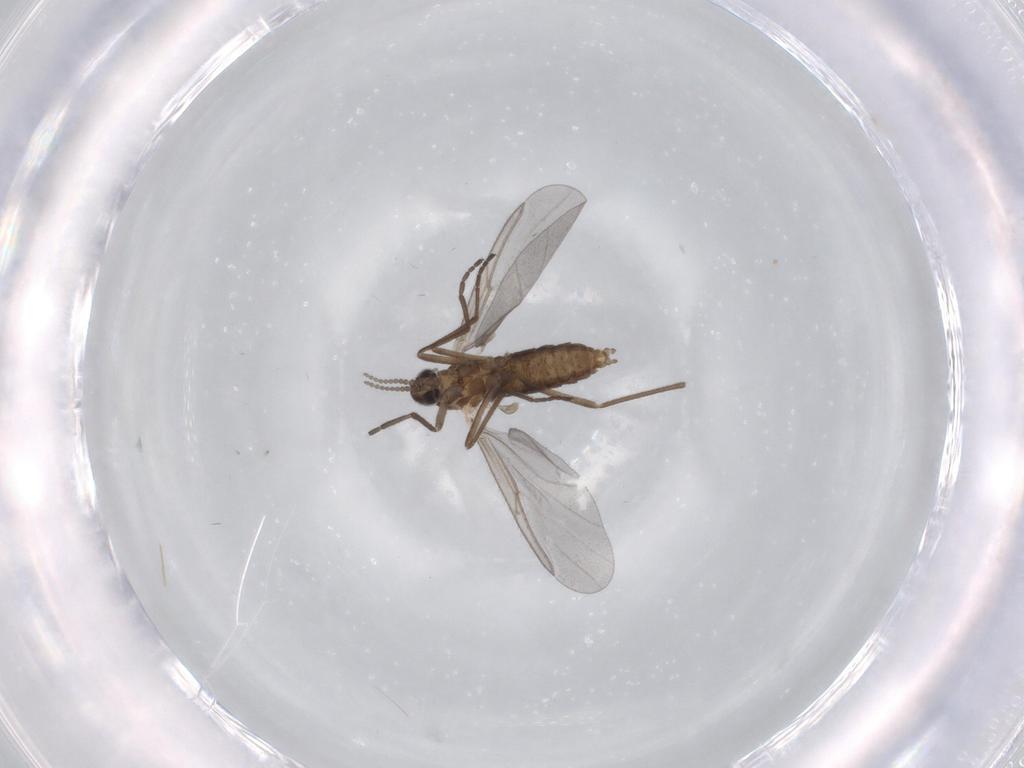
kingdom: Animalia
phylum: Arthropoda
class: Insecta
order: Diptera
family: Cecidomyiidae
